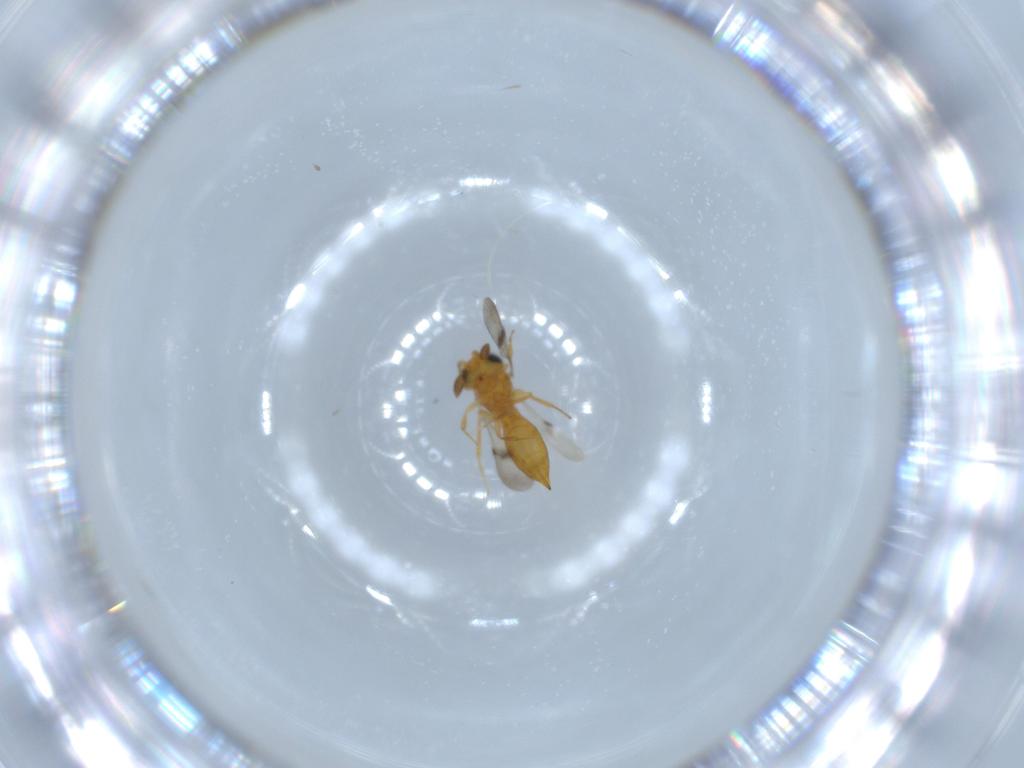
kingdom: Animalia
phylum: Arthropoda
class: Insecta
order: Hymenoptera
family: Scelionidae
